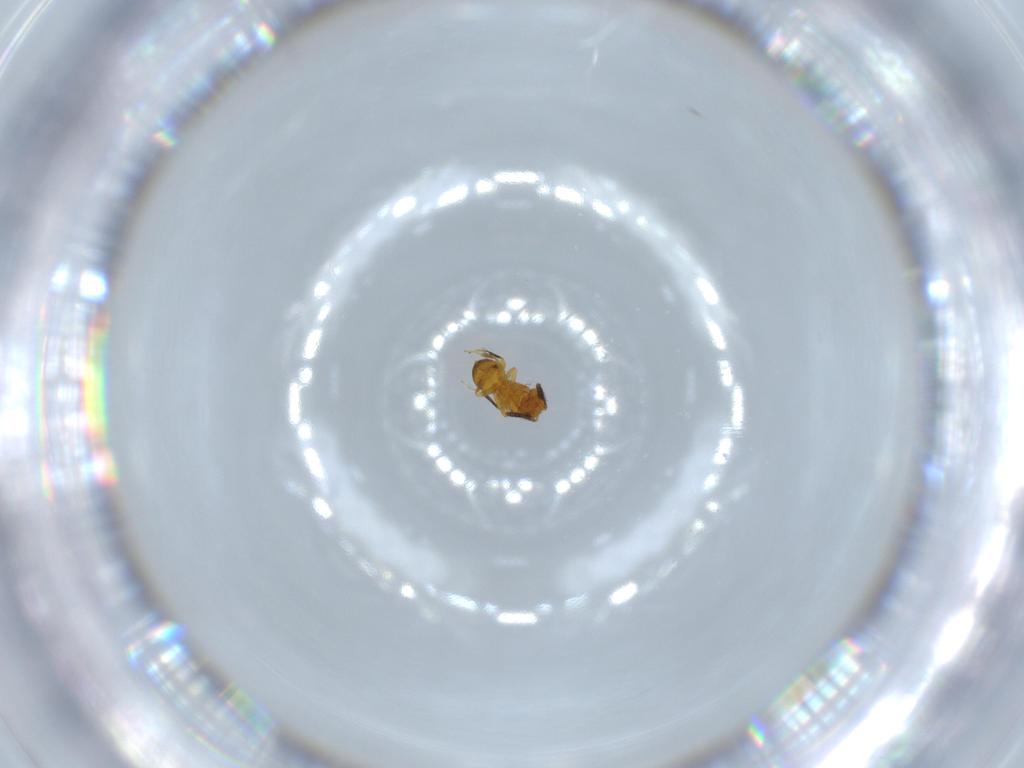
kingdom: Animalia
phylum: Arthropoda
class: Insecta
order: Hymenoptera
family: Scelionidae
